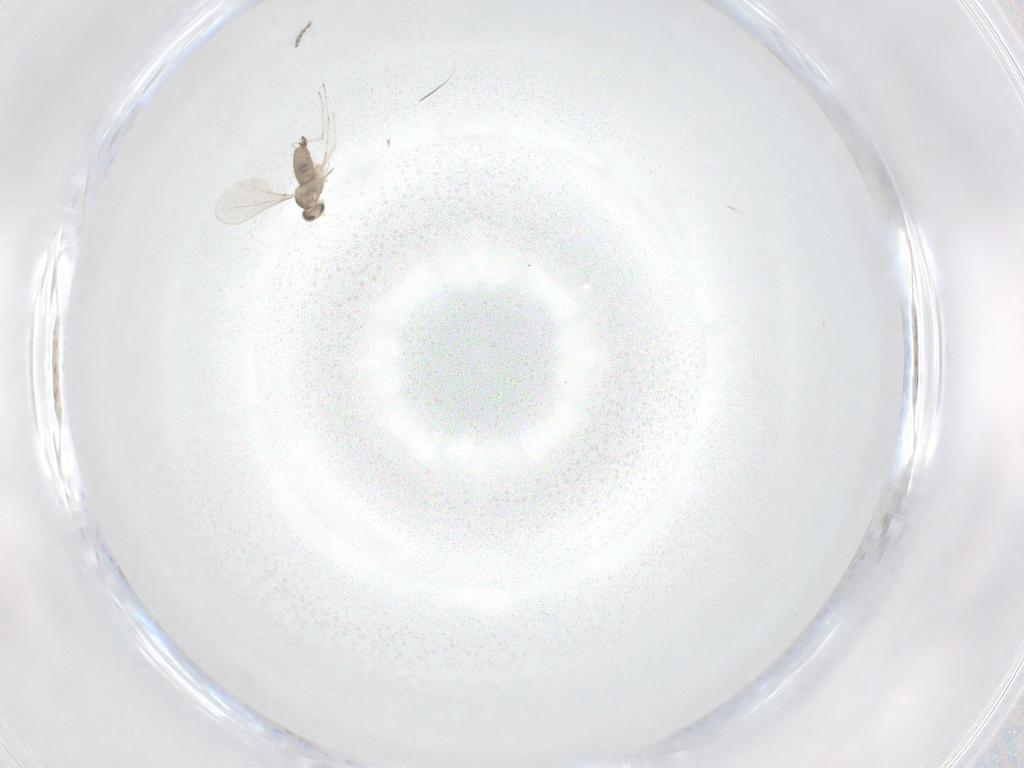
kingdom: Animalia
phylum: Arthropoda
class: Insecta
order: Diptera
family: Cecidomyiidae
